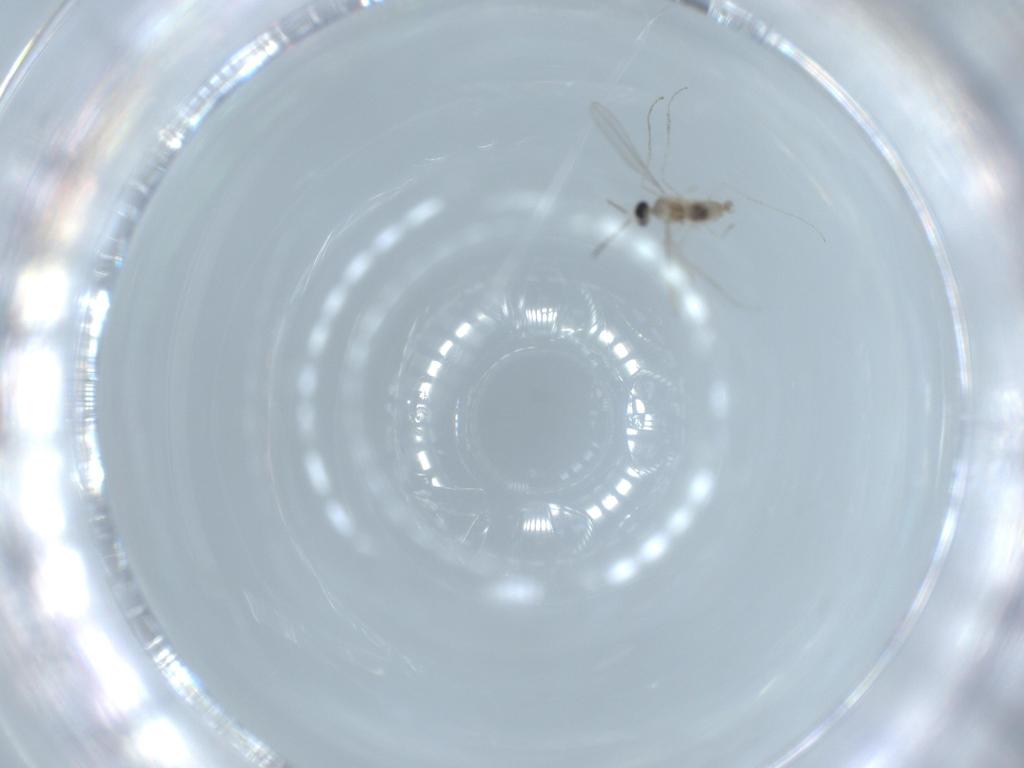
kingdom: Animalia
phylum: Arthropoda
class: Insecta
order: Diptera
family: Cecidomyiidae
